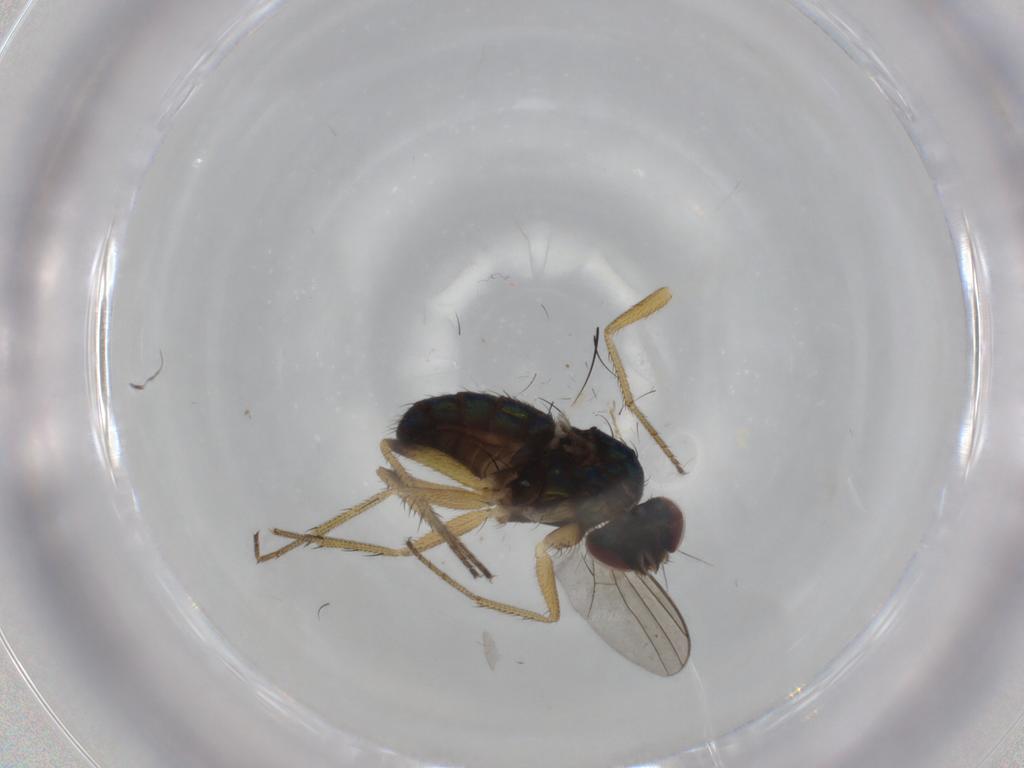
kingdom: Animalia
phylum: Arthropoda
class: Insecta
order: Diptera
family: Dolichopodidae
